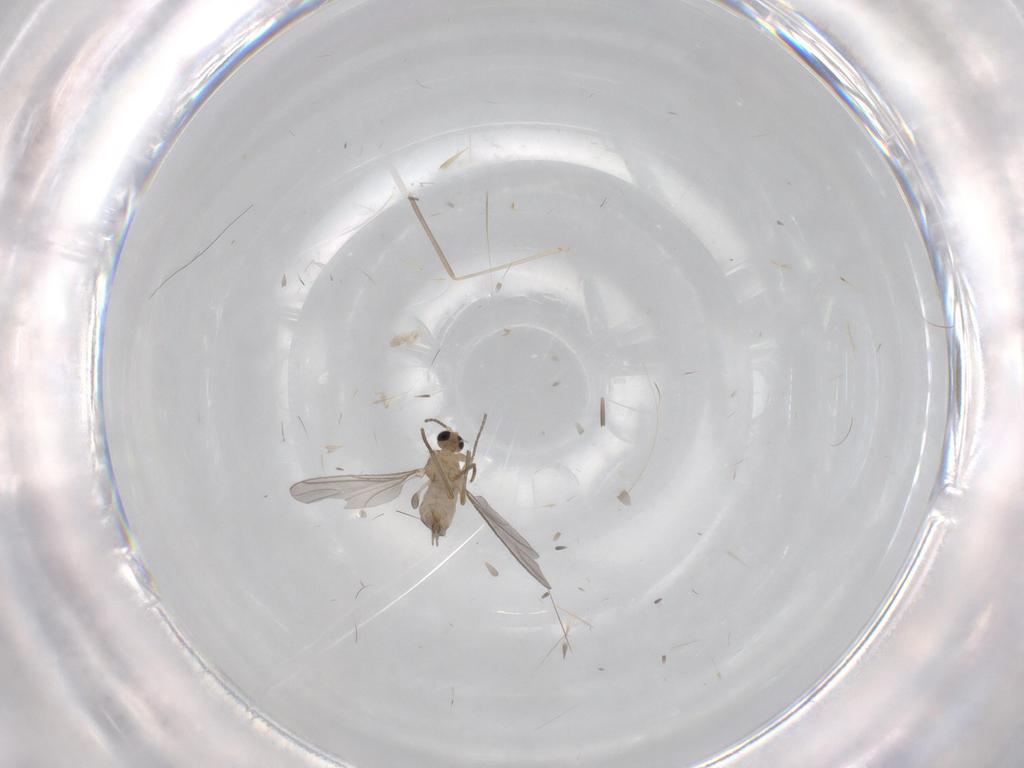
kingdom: Animalia
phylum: Arthropoda
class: Insecta
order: Diptera
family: Sciaridae
